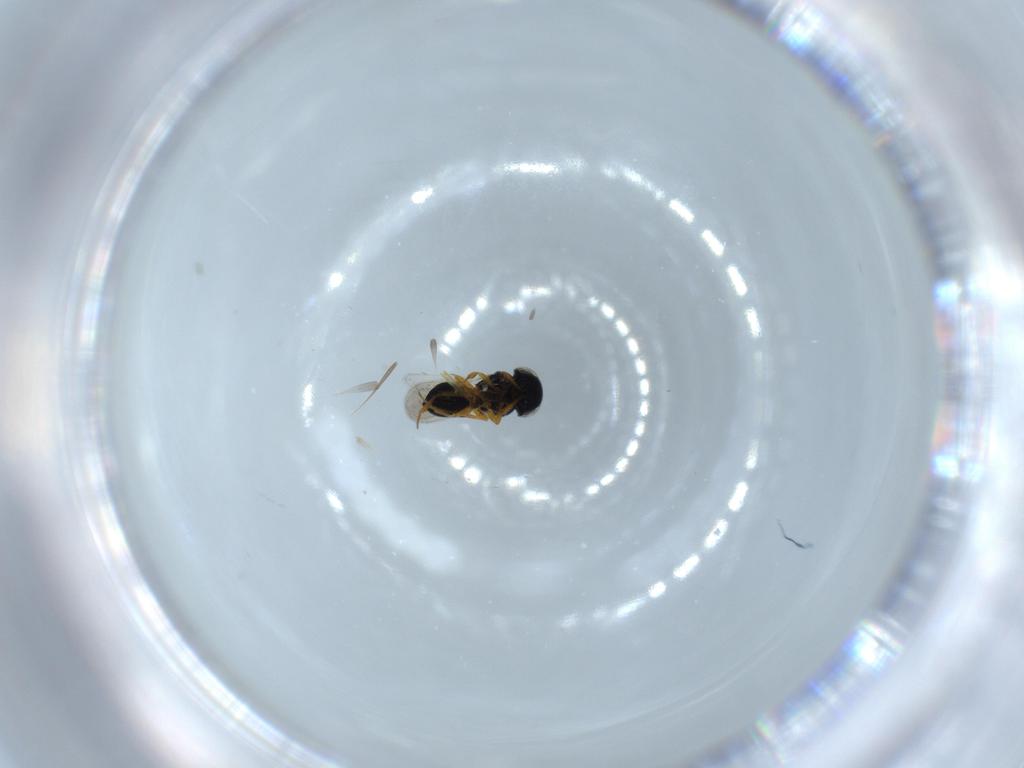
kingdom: Animalia
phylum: Arthropoda
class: Insecta
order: Hymenoptera
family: Scelionidae
